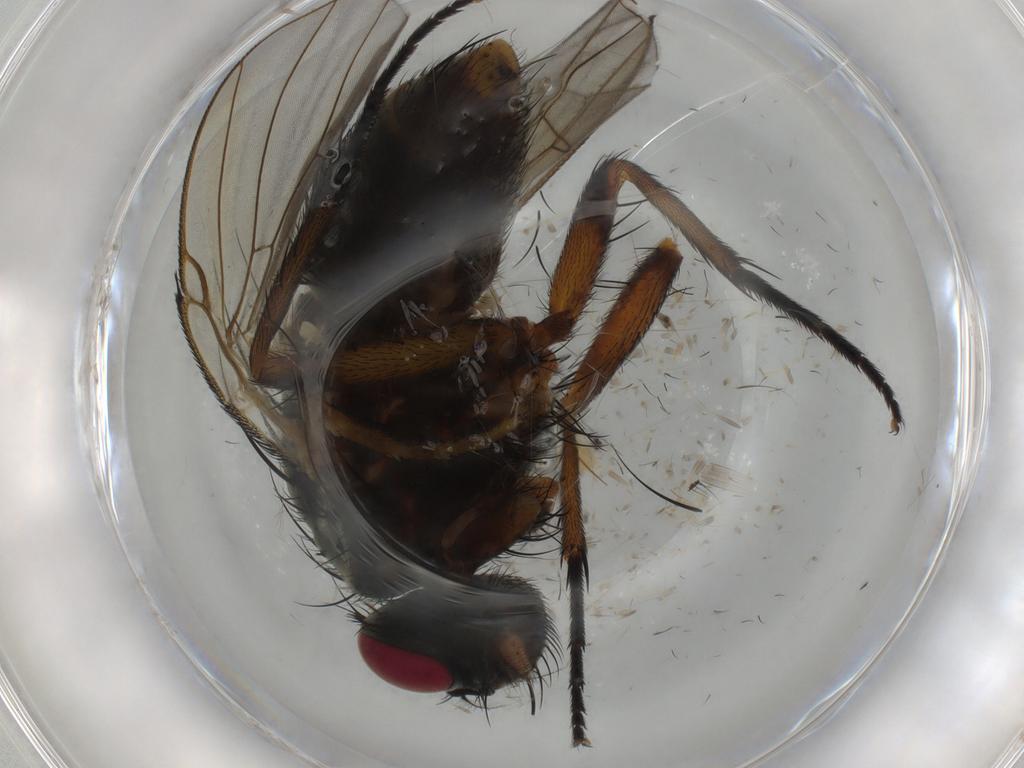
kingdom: Animalia
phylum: Arthropoda
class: Insecta
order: Diptera
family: Muscidae
